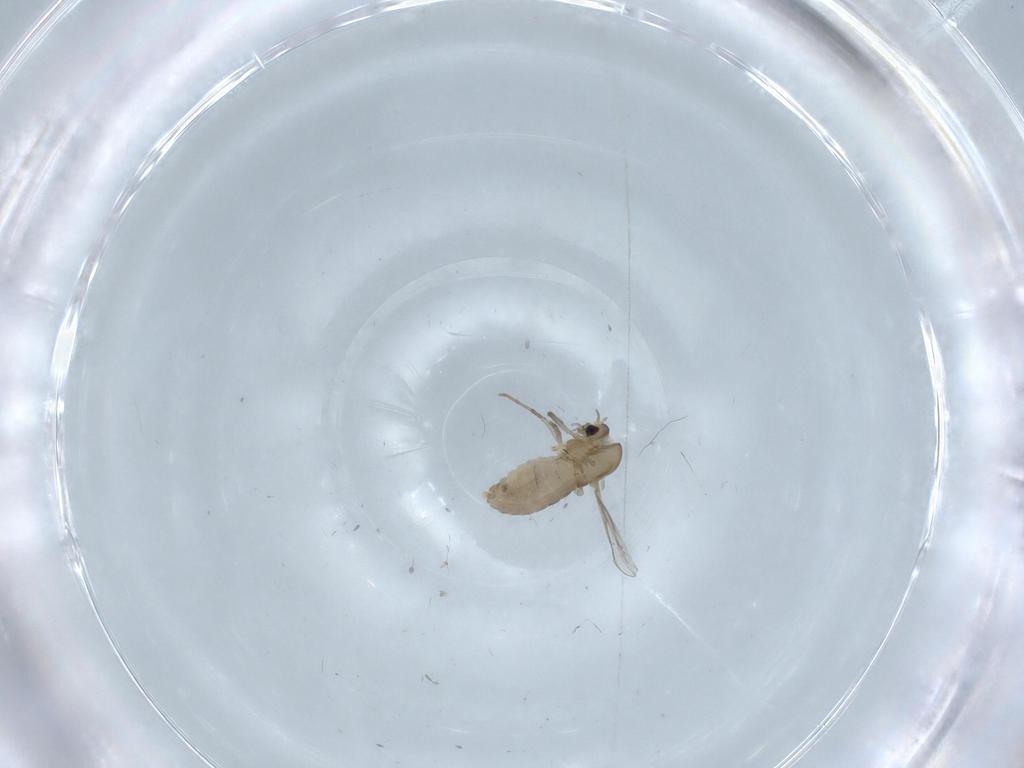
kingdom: Animalia
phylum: Arthropoda
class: Insecta
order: Diptera
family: Chironomidae
